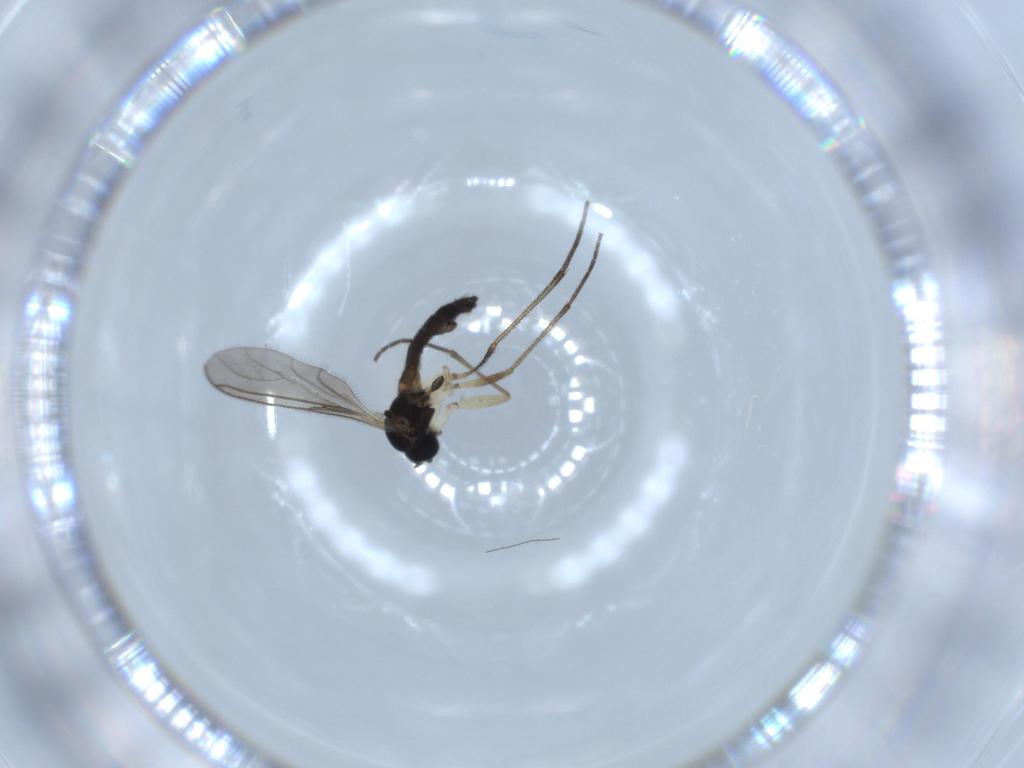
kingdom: Animalia
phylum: Arthropoda
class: Insecta
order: Diptera
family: Sciaridae
